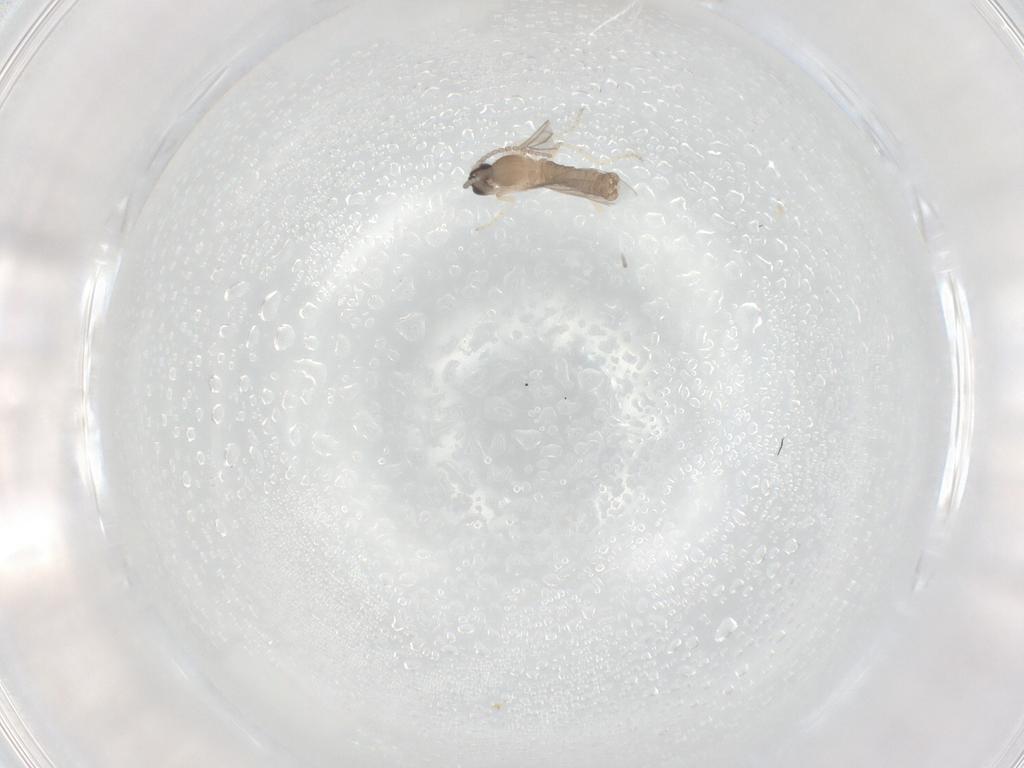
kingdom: Animalia
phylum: Arthropoda
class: Insecta
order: Diptera
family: Cecidomyiidae
